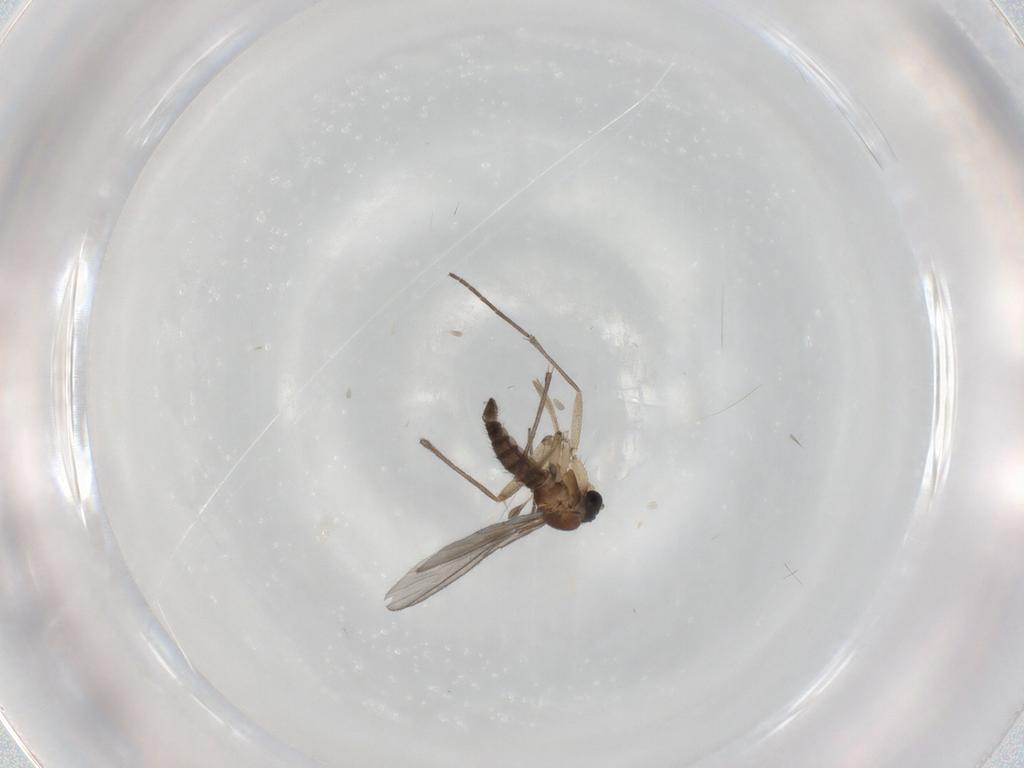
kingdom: Animalia
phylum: Arthropoda
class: Insecta
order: Diptera
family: Sciaridae
